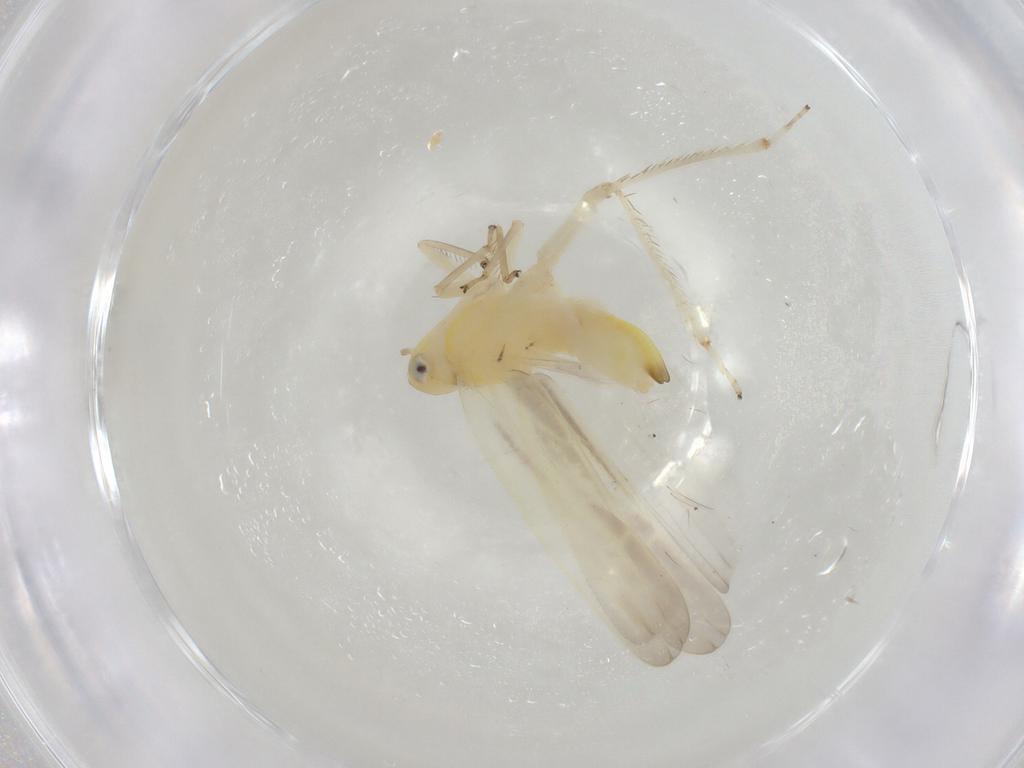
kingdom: Animalia
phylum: Arthropoda
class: Insecta
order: Hemiptera
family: Cicadellidae
